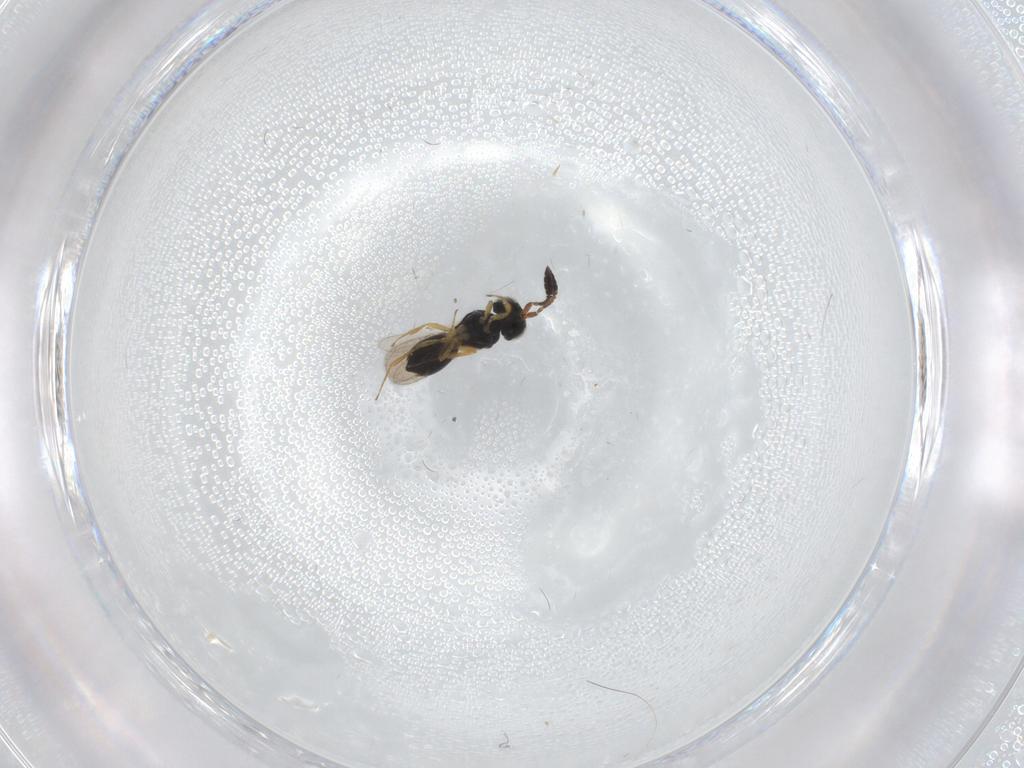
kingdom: Animalia
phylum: Arthropoda
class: Insecta
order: Hymenoptera
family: Scelionidae
